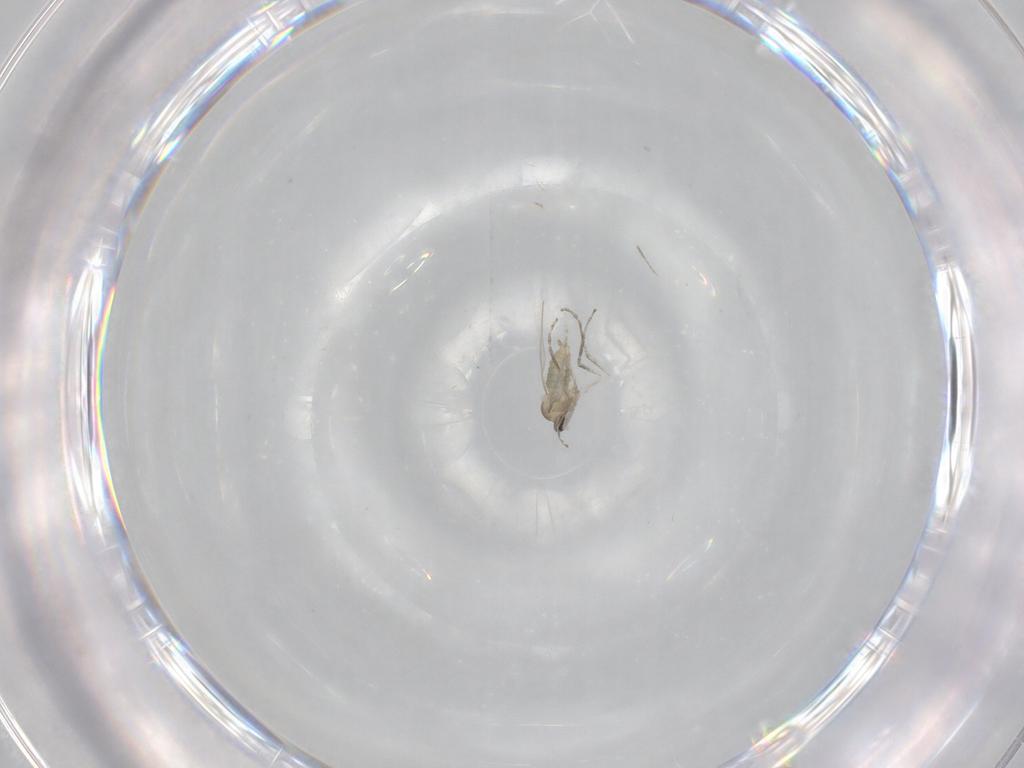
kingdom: Animalia
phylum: Arthropoda
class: Insecta
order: Diptera
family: Cecidomyiidae
